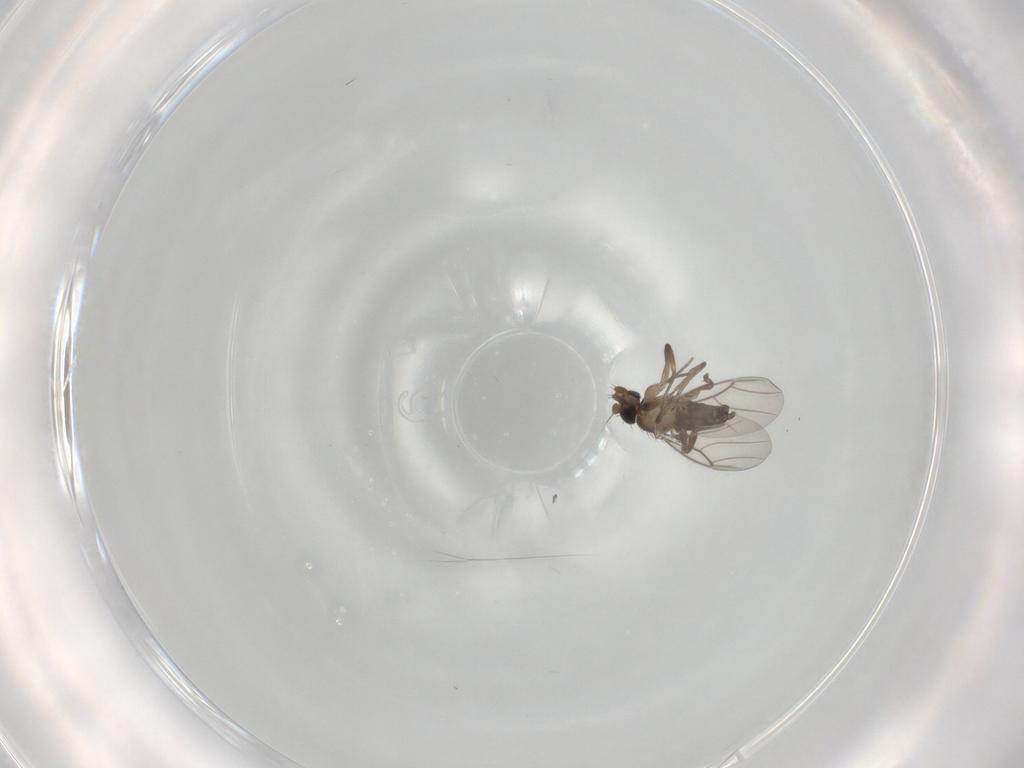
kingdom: Animalia
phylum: Arthropoda
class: Insecta
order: Diptera
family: Phoridae
